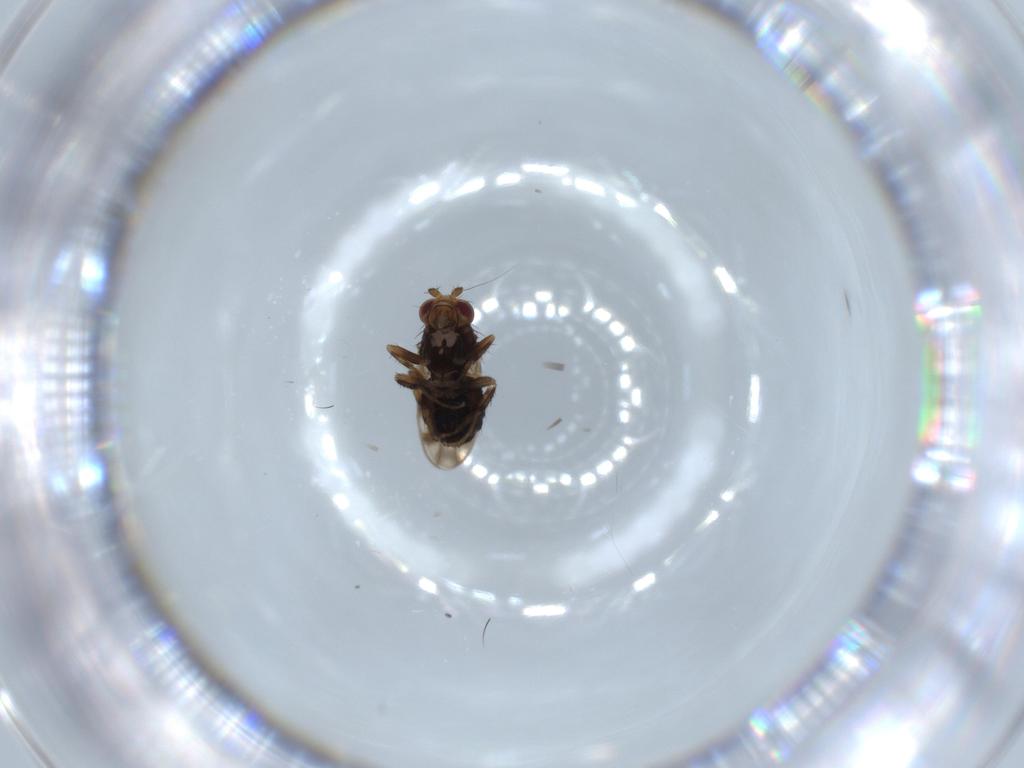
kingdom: Animalia
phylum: Arthropoda
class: Insecta
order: Diptera
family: Sphaeroceridae
